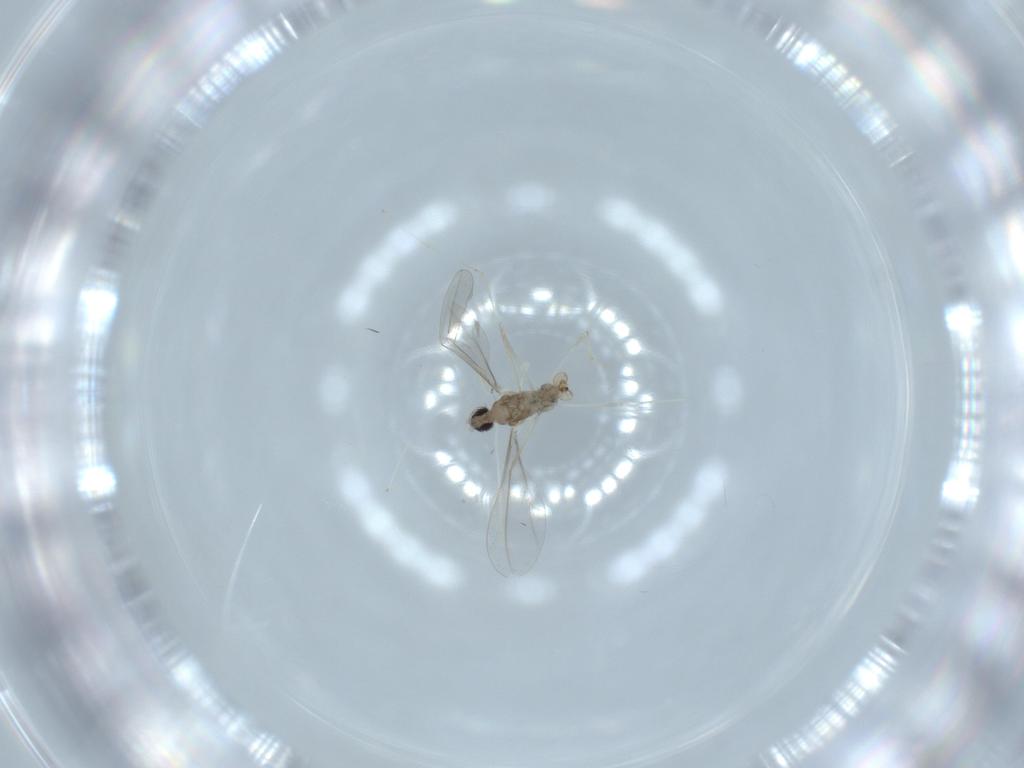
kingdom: Animalia
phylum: Arthropoda
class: Insecta
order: Diptera
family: Cecidomyiidae
